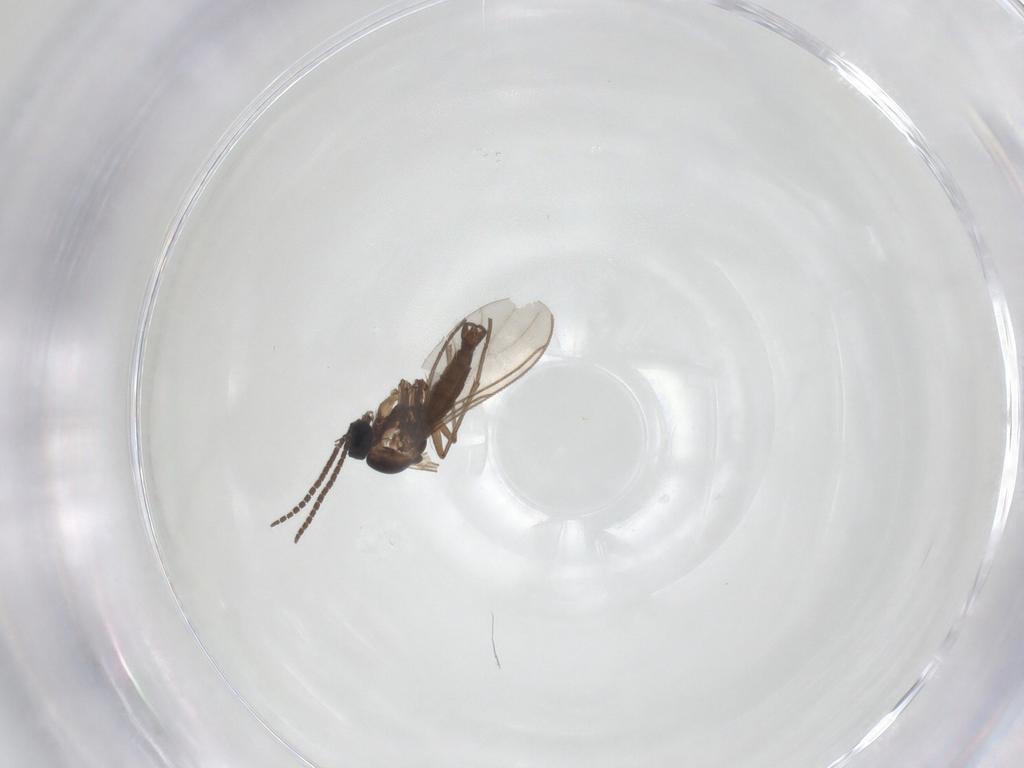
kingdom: Animalia
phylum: Arthropoda
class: Insecta
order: Diptera
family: Sciaridae
